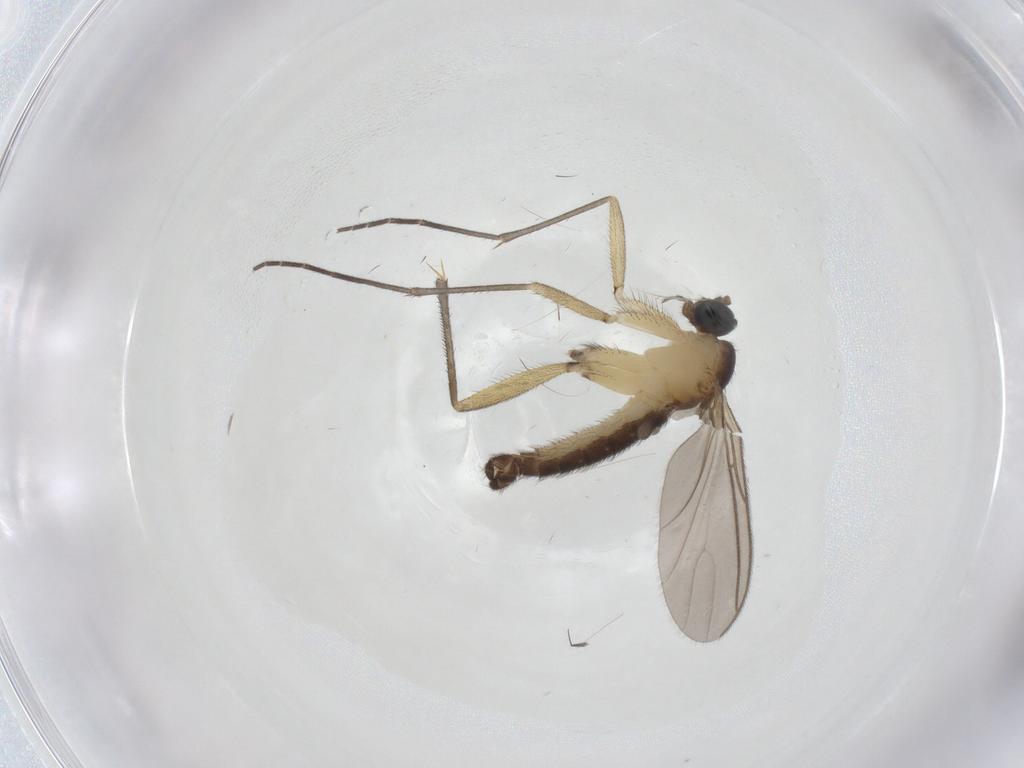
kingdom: Animalia
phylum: Arthropoda
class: Insecta
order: Diptera
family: Sciaridae
